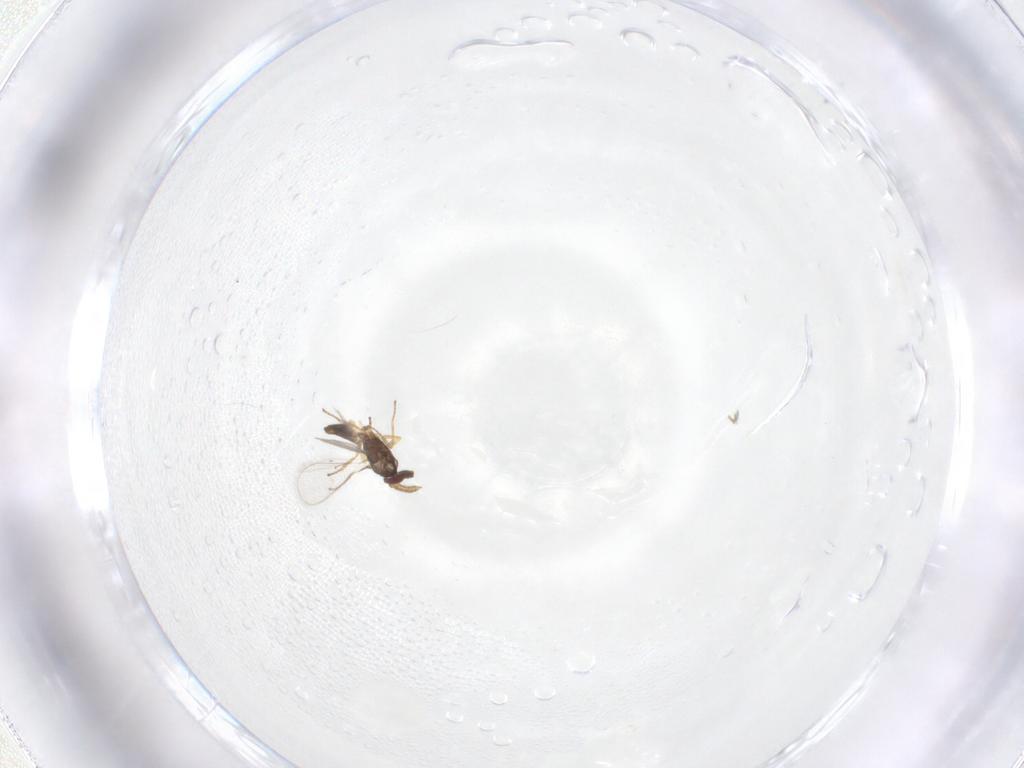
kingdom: Animalia
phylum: Arthropoda
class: Insecta
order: Hymenoptera
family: Eulophidae
